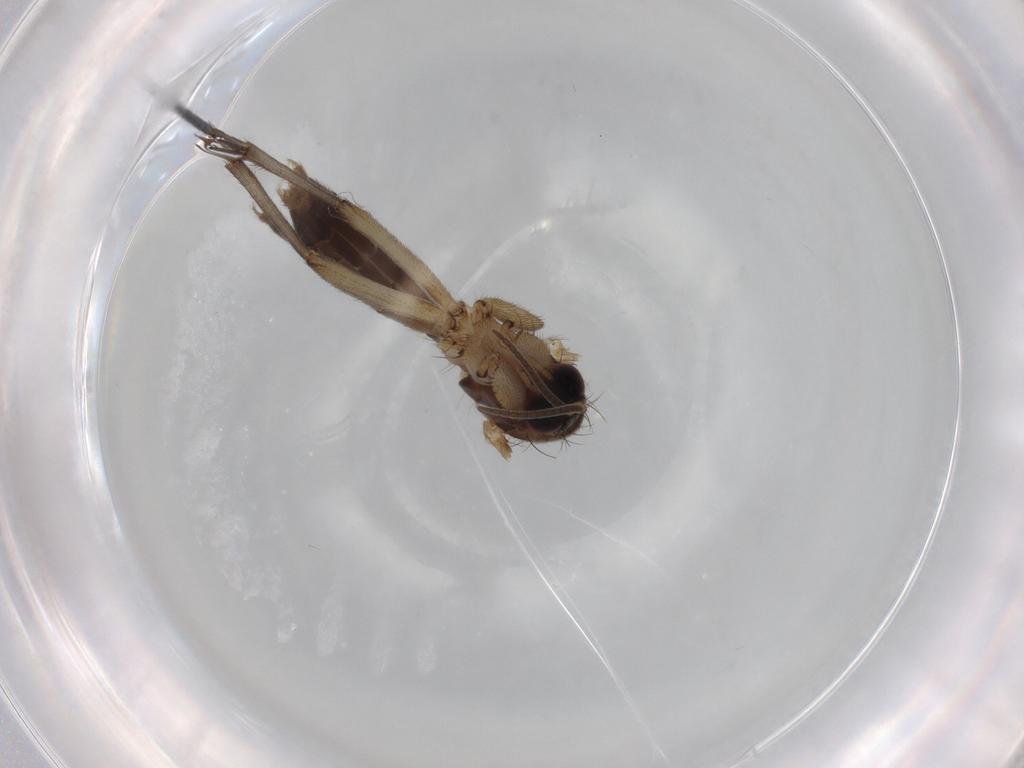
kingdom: Animalia
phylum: Arthropoda
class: Insecta
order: Diptera
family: Mycetophilidae
